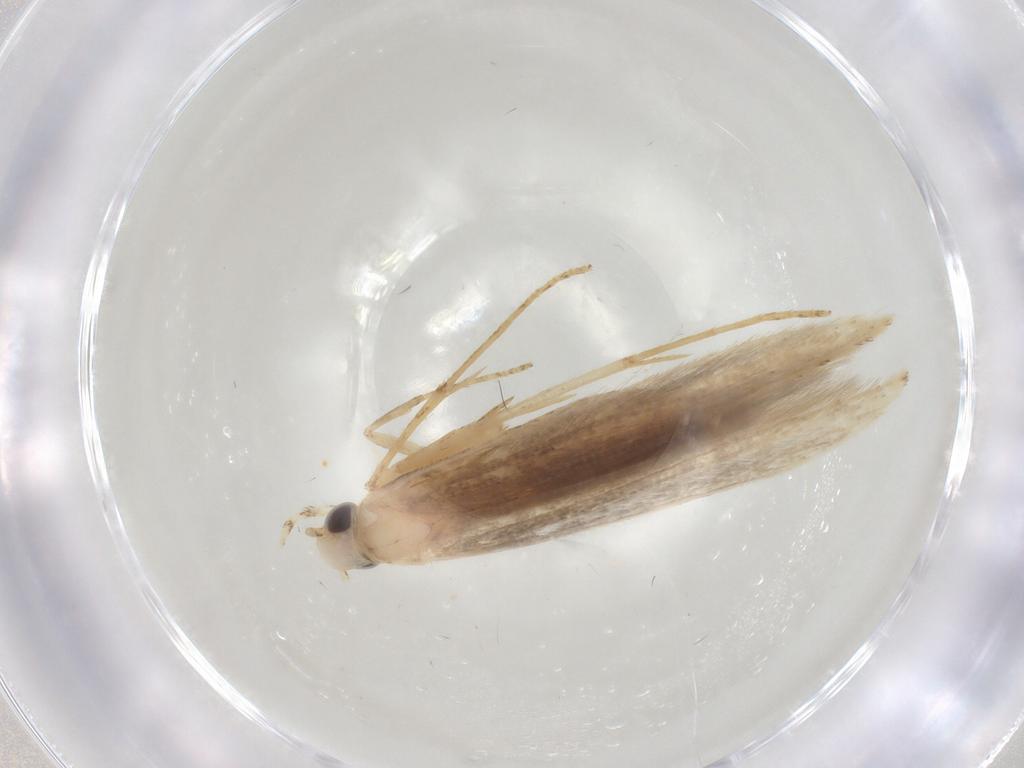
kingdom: Animalia
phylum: Arthropoda
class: Insecta
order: Lepidoptera
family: Batrachedridae
